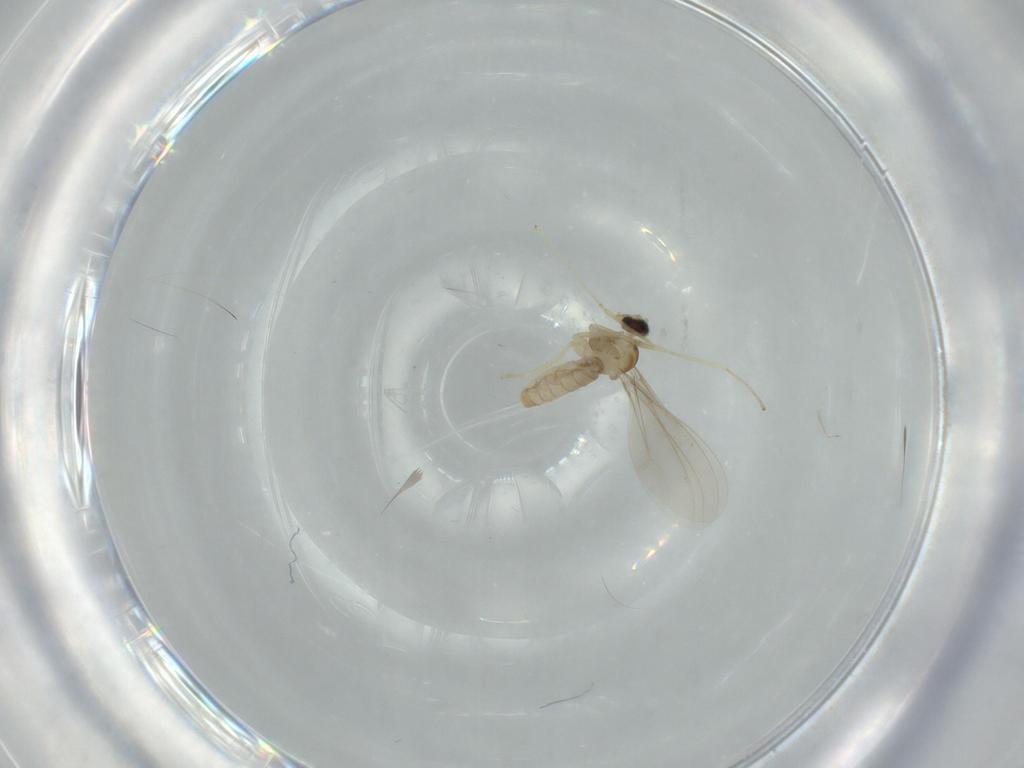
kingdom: Animalia
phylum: Arthropoda
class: Insecta
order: Diptera
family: Cecidomyiidae
